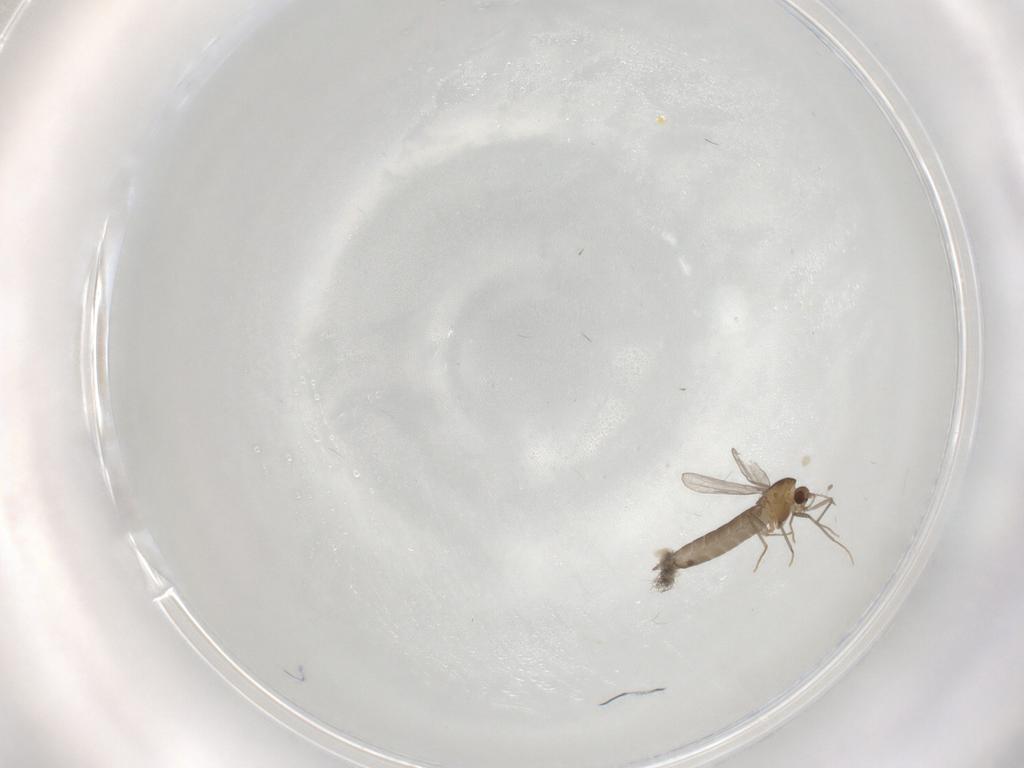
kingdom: Animalia
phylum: Arthropoda
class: Insecta
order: Diptera
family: Chironomidae
